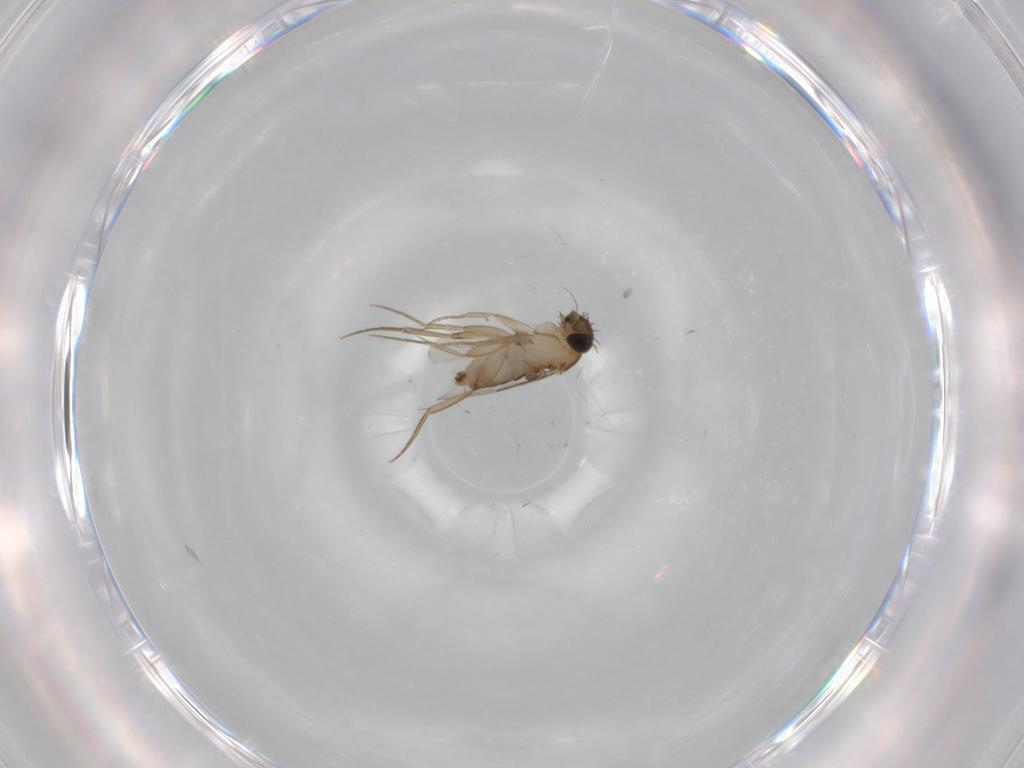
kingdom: Animalia
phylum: Arthropoda
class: Insecta
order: Diptera
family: Phoridae
